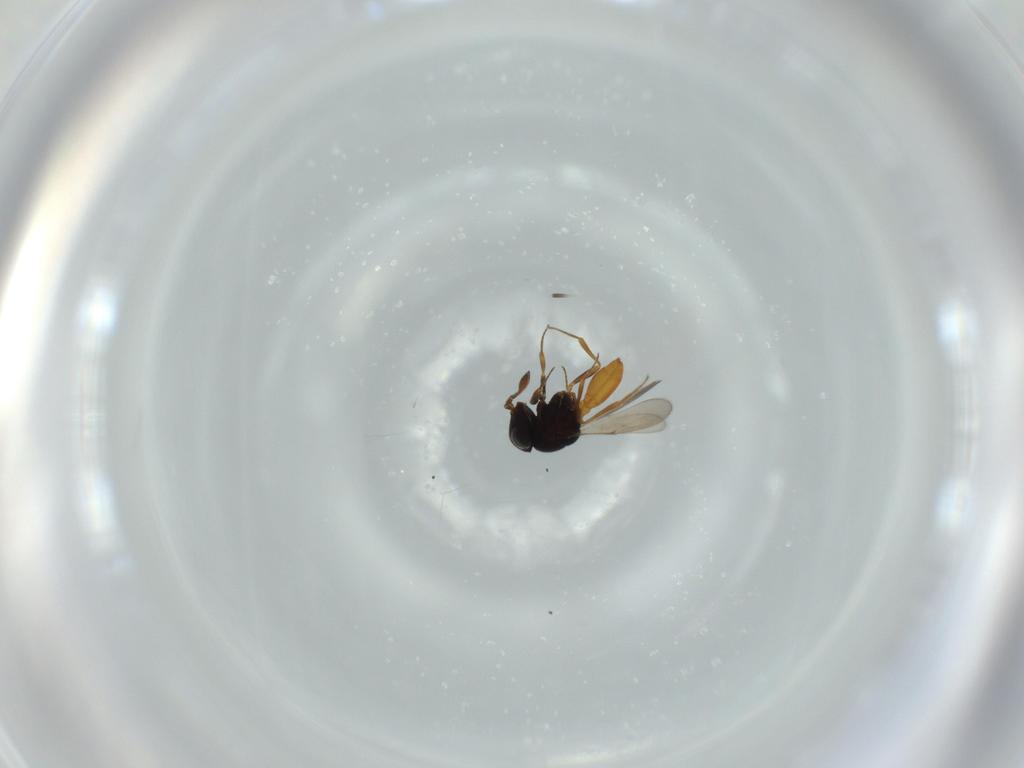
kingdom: Animalia
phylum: Arthropoda
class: Insecta
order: Hymenoptera
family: Scelionidae
